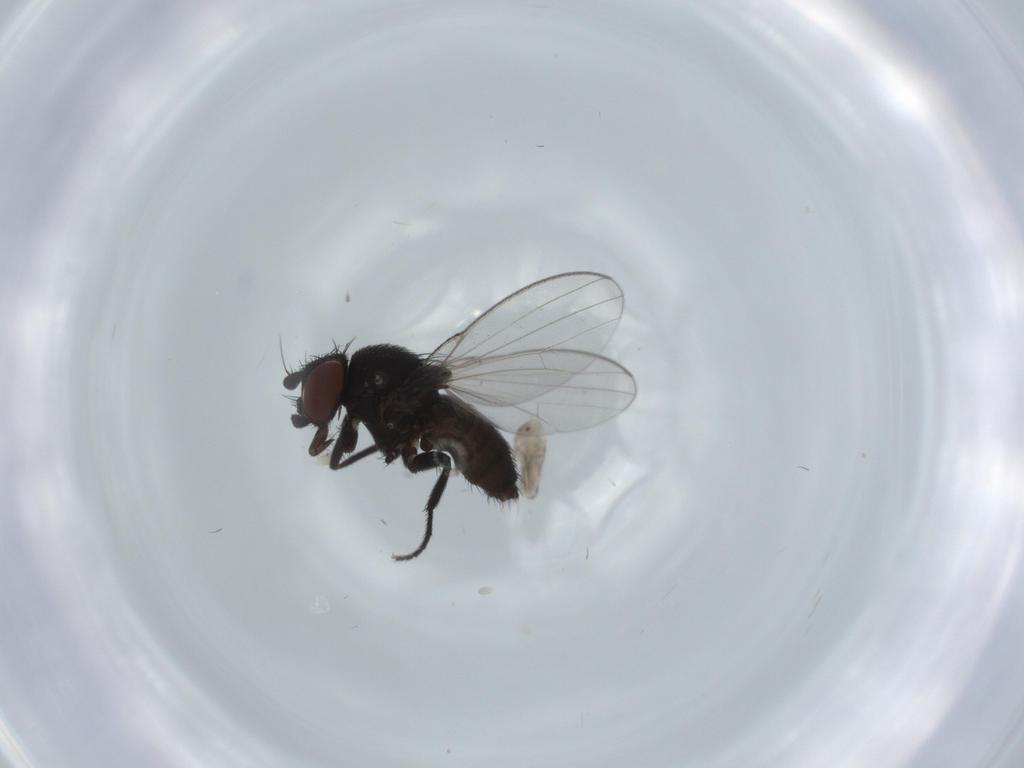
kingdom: Animalia
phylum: Arthropoda
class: Insecta
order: Diptera
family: Milichiidae
